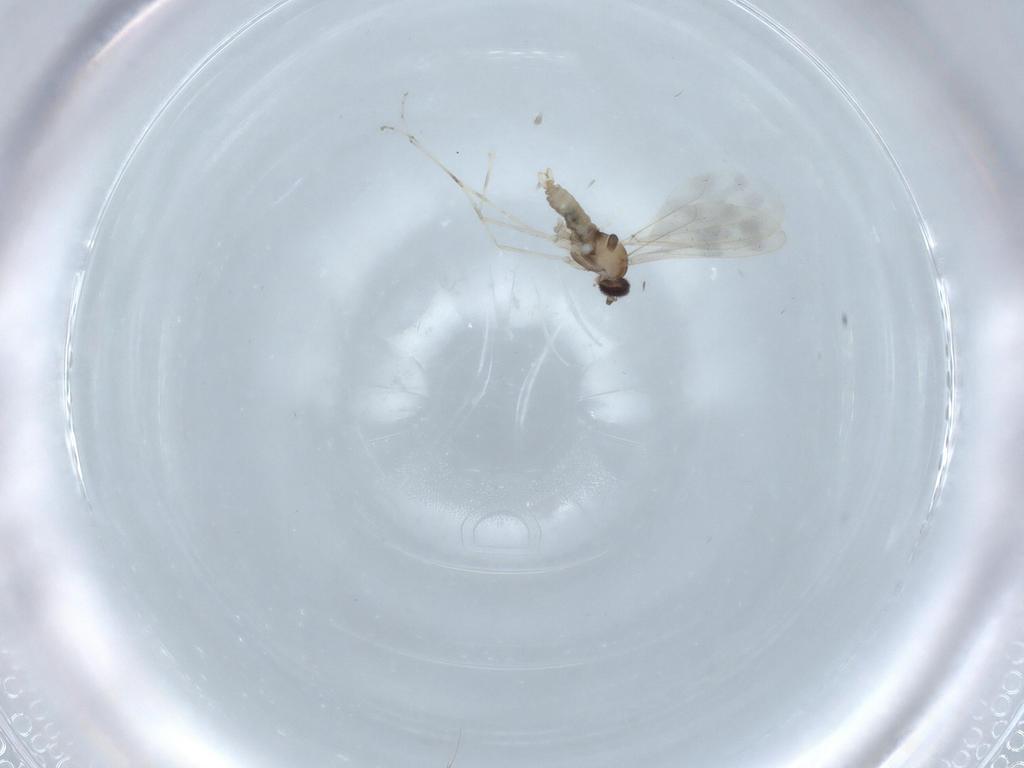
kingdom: Animalia
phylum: Arthropoda
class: Insecta
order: Diptera
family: Cecidomyiidae
